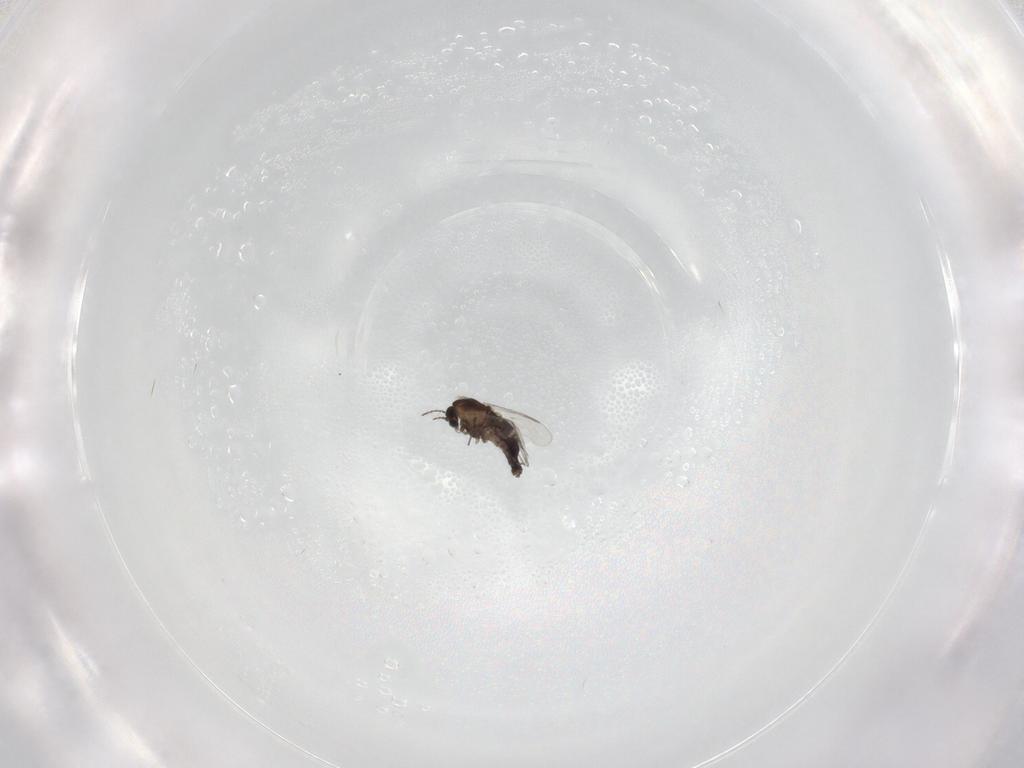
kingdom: Animalia
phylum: Arthropoda
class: Insecta
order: Diptera
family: Chironomidae
